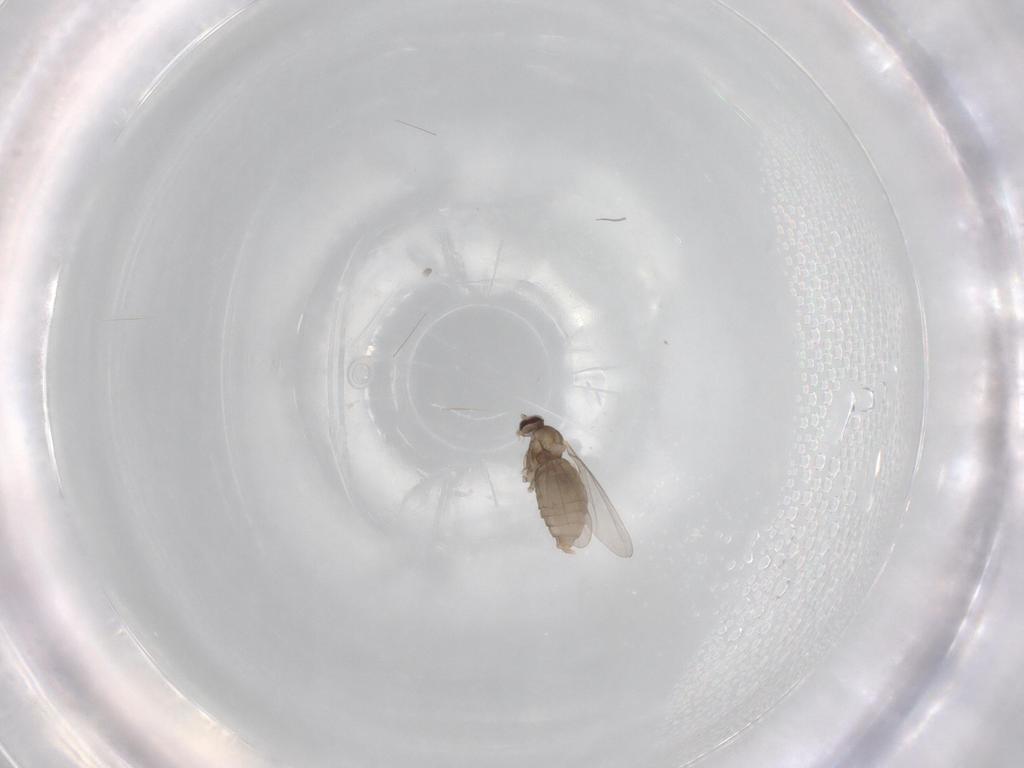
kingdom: Animalia
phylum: Arthropoda
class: Insecta
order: Diptera
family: Cecidomyiidae
